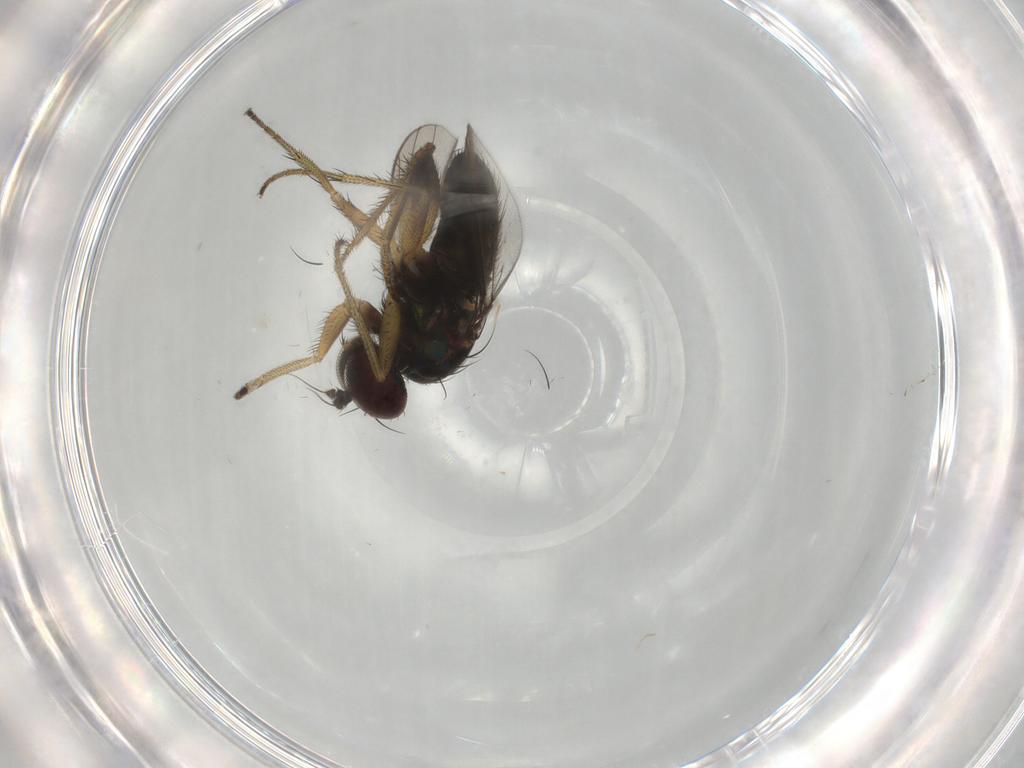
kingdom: Animalia
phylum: Arthropoda
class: Insecta
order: Diptera
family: Dolichopodidae
